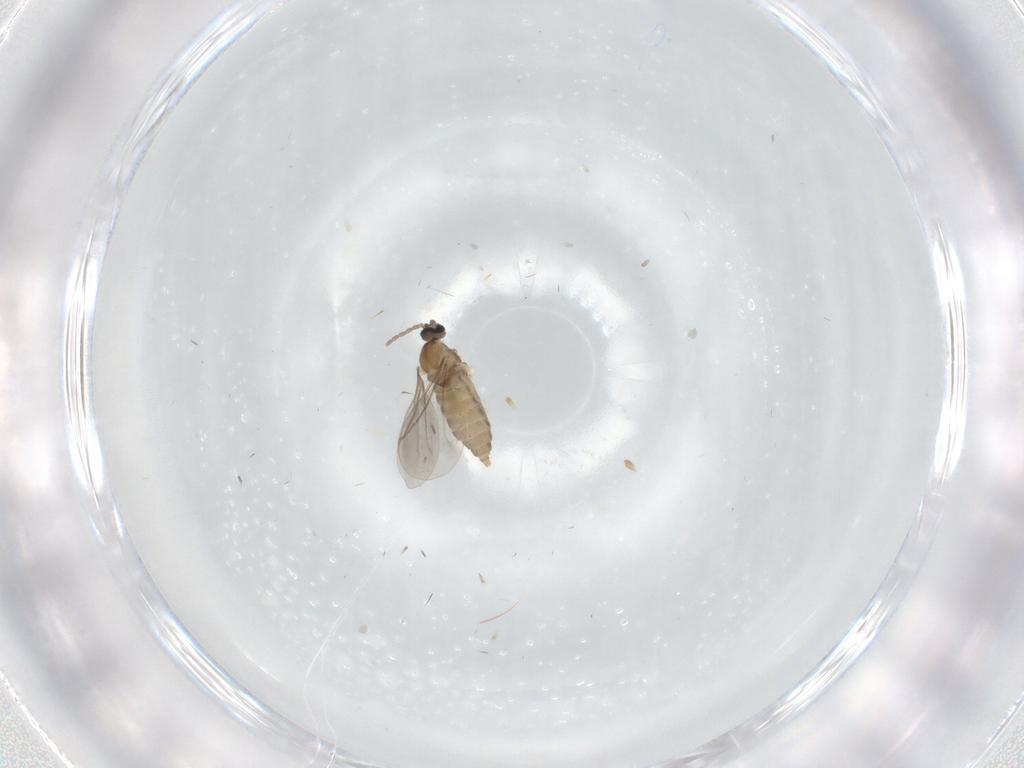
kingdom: Animalia
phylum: Arthropoda
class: Insecta
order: Diptera
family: Cecidomyiidae
